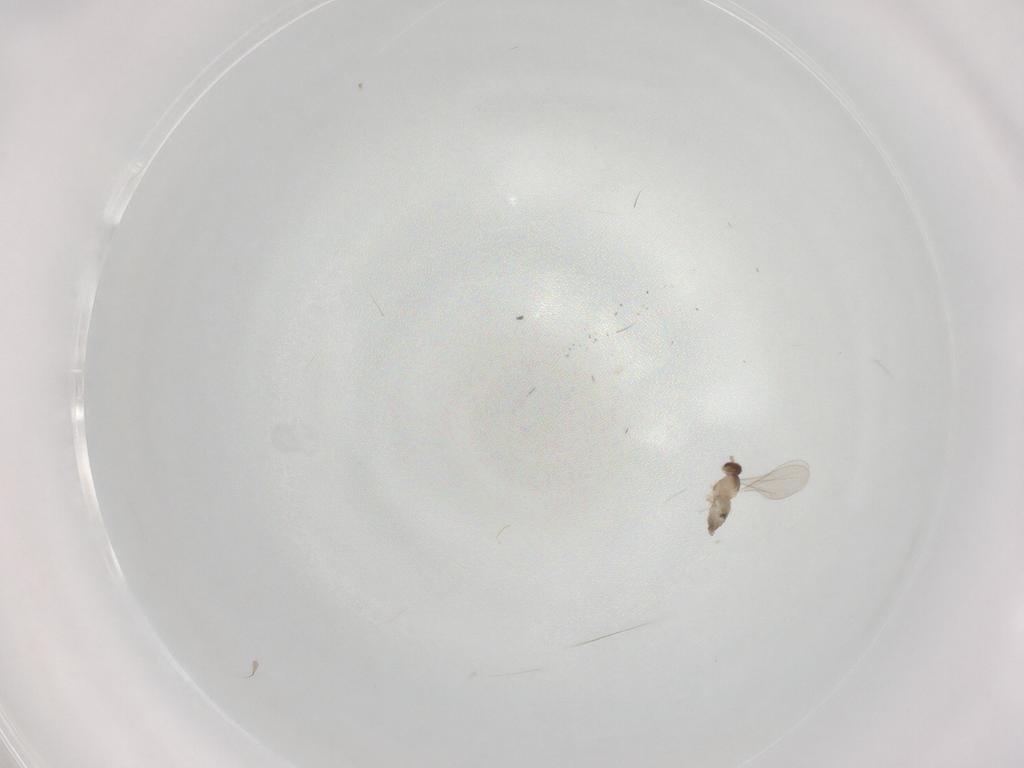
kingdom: Animalia
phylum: Arthropoda
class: Insecta
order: Diptera
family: Cecidomyiidae
